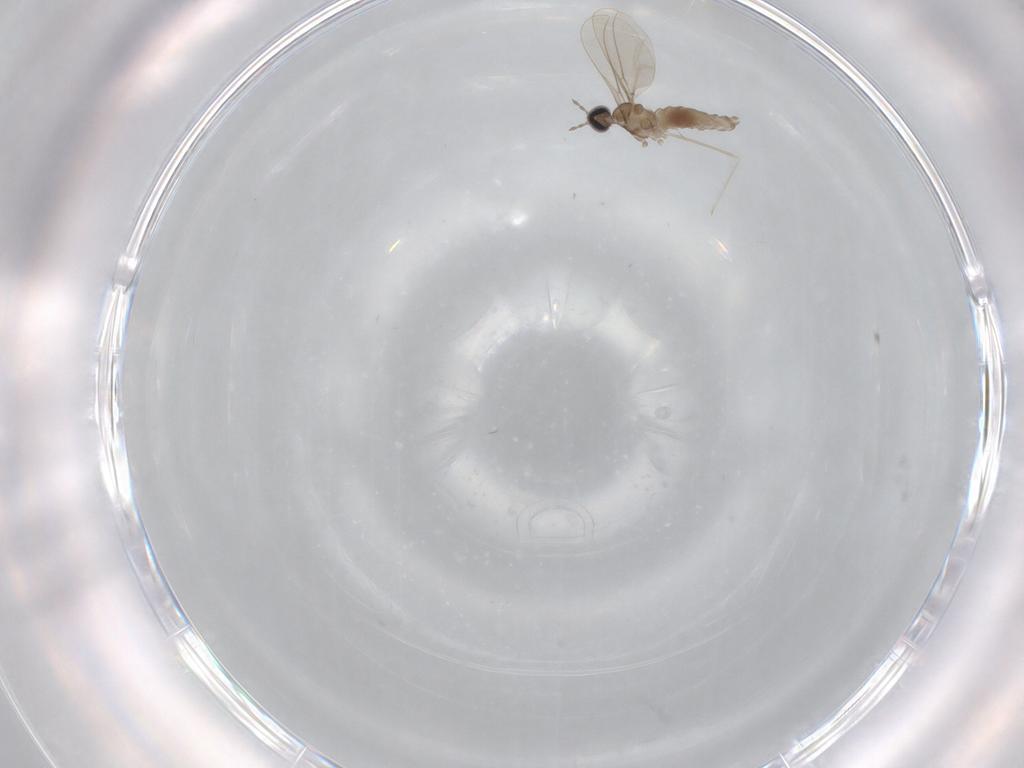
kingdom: Animalia
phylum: Arthropoda
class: Insecta
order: Diptera
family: Cecidomyiidae
